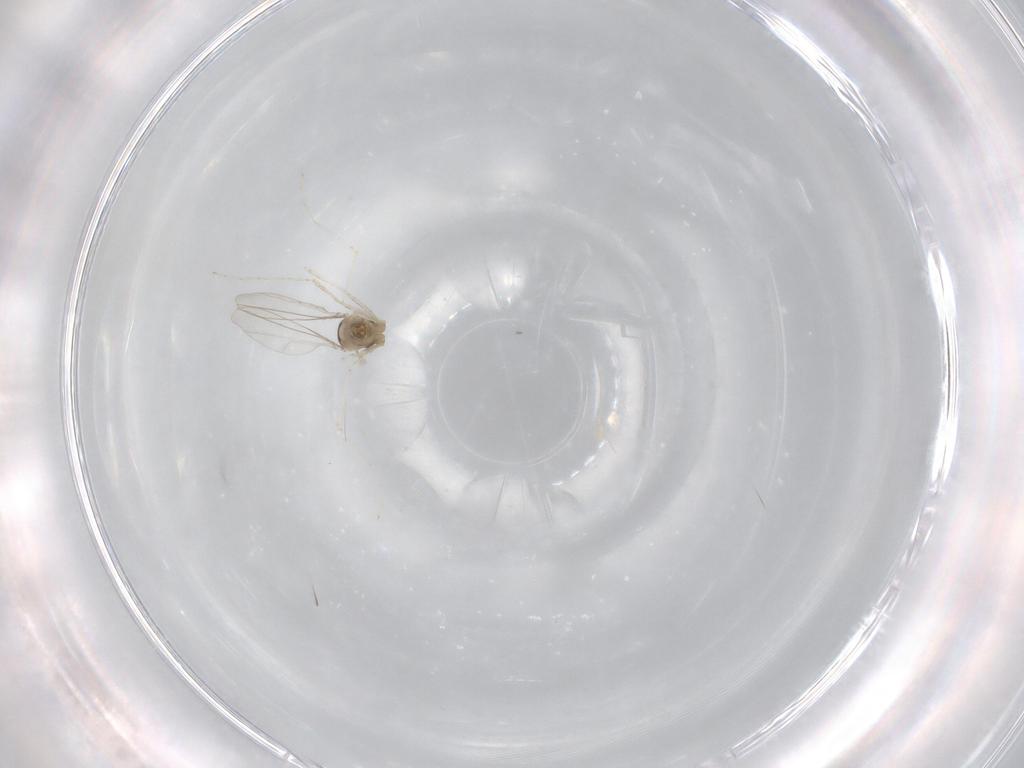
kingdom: Animalia
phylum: Arthropoda
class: Insecta
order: Diptera
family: Cecidomyiidae
